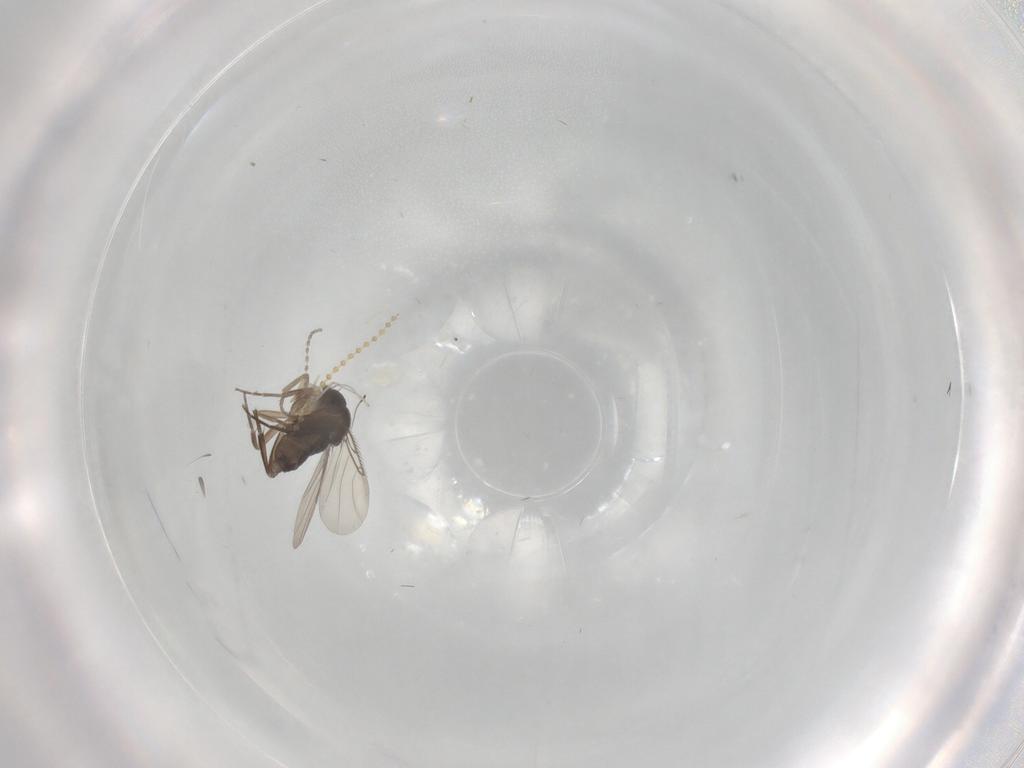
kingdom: Animalia
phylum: Arthropoda
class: Insecta
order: Diptera
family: Phoridae
